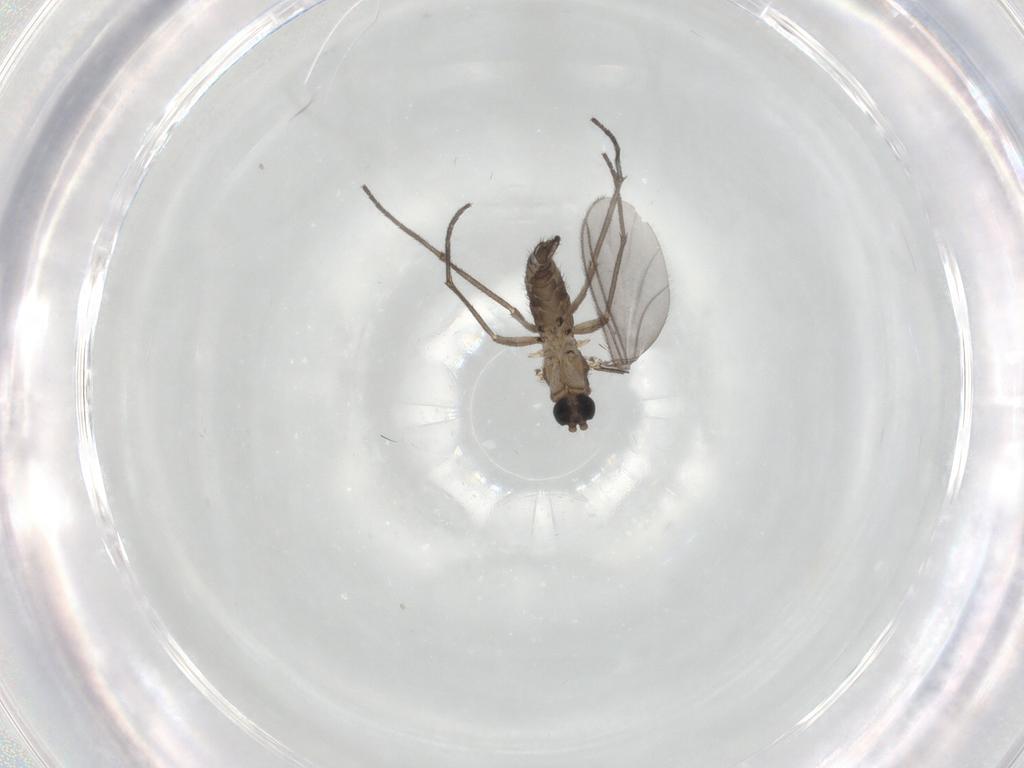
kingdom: Animalia
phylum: Arthropoda
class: Insecta
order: Diptera
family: Sciaridae
